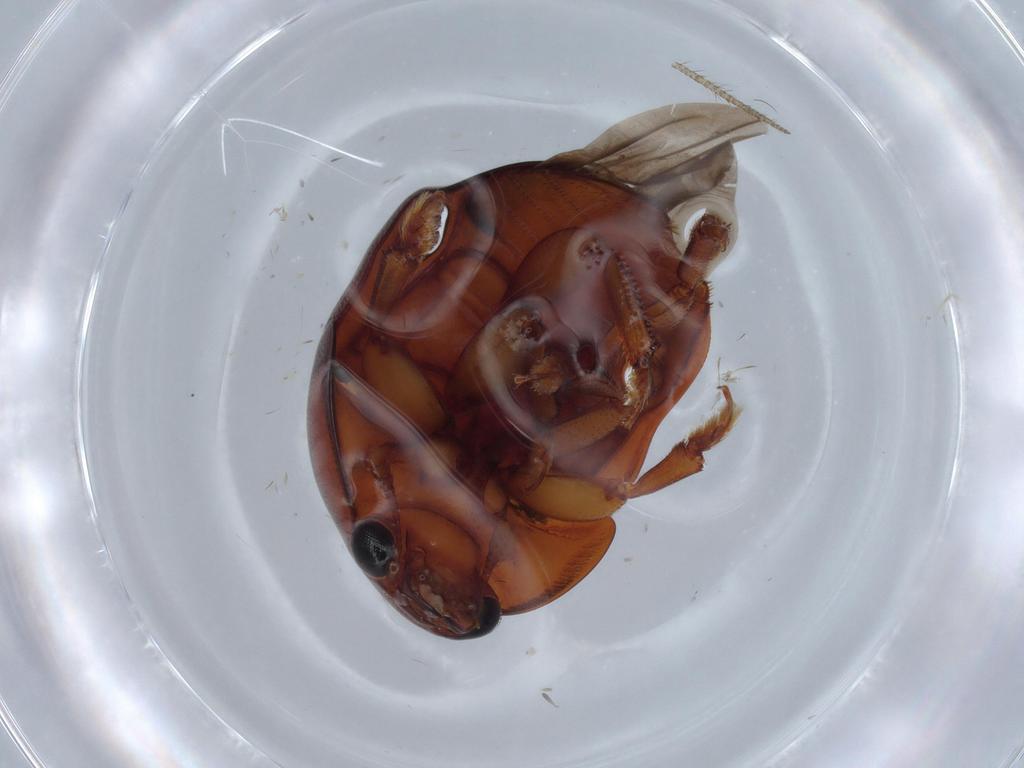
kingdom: Animalia
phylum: Arthropoda
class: Insecta
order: Coleoptera
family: Nitidulidae
